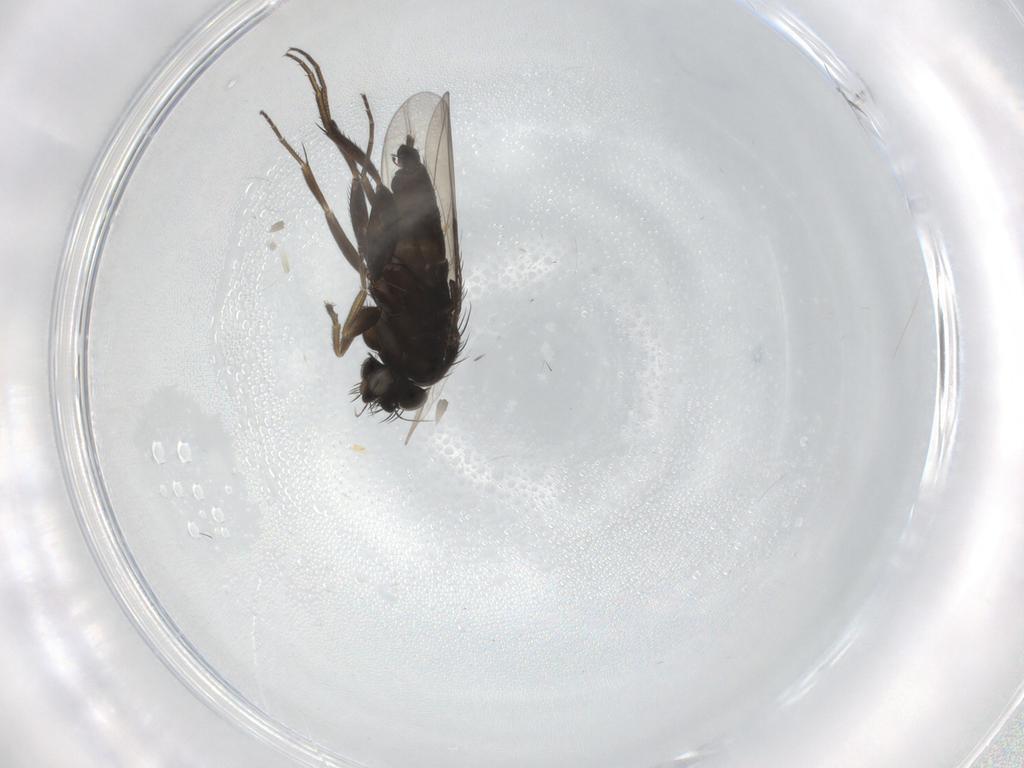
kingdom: Animalia
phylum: Arthropoda
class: Insecta
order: Diptera
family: Phoridae
